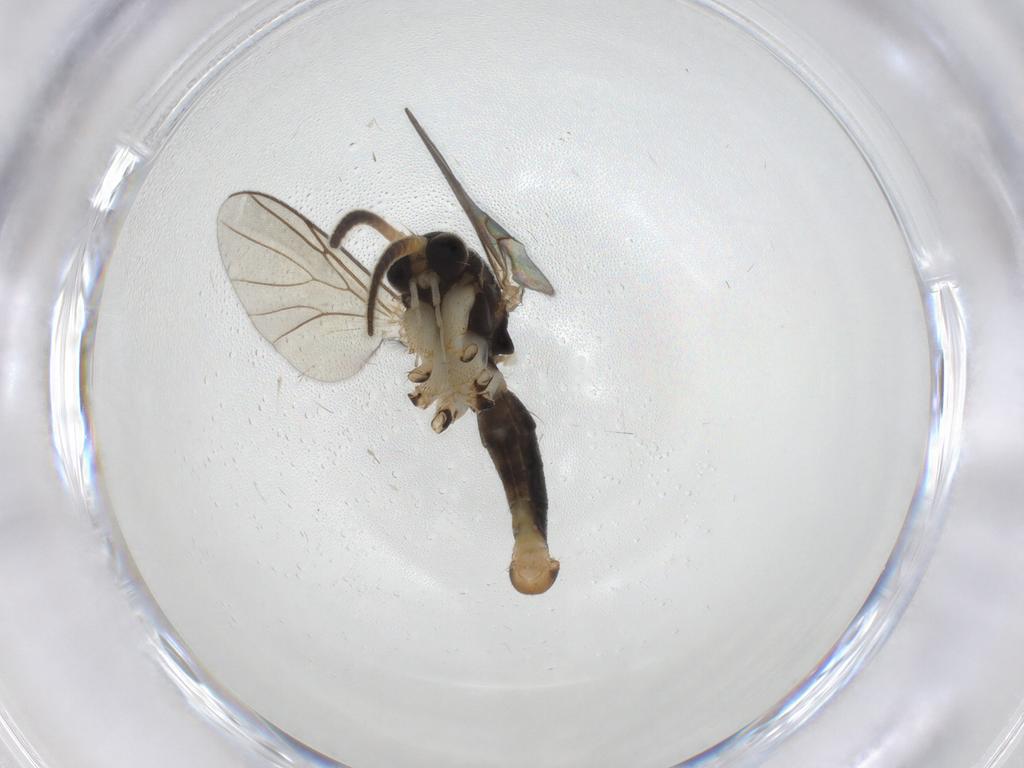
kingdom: Animalia
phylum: Arthropoda
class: Insecta
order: Diptera
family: Mycetophilidae
